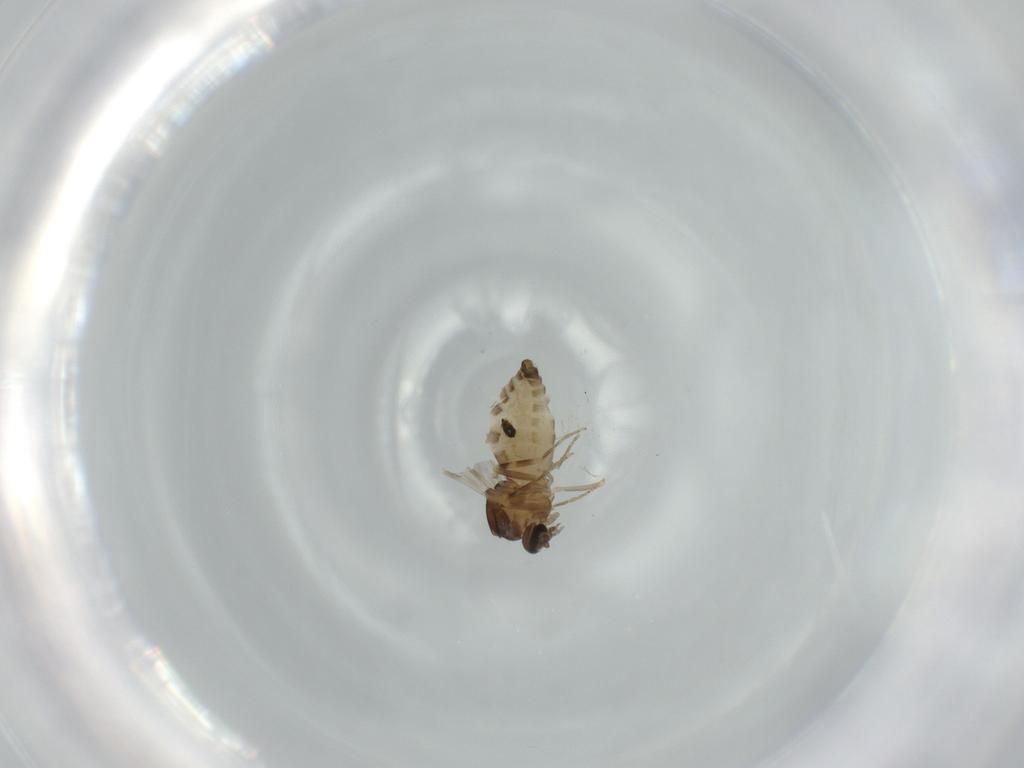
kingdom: Animalia
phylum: Arthropoda
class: Insecta
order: Diptera
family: Ceratopogonidae
